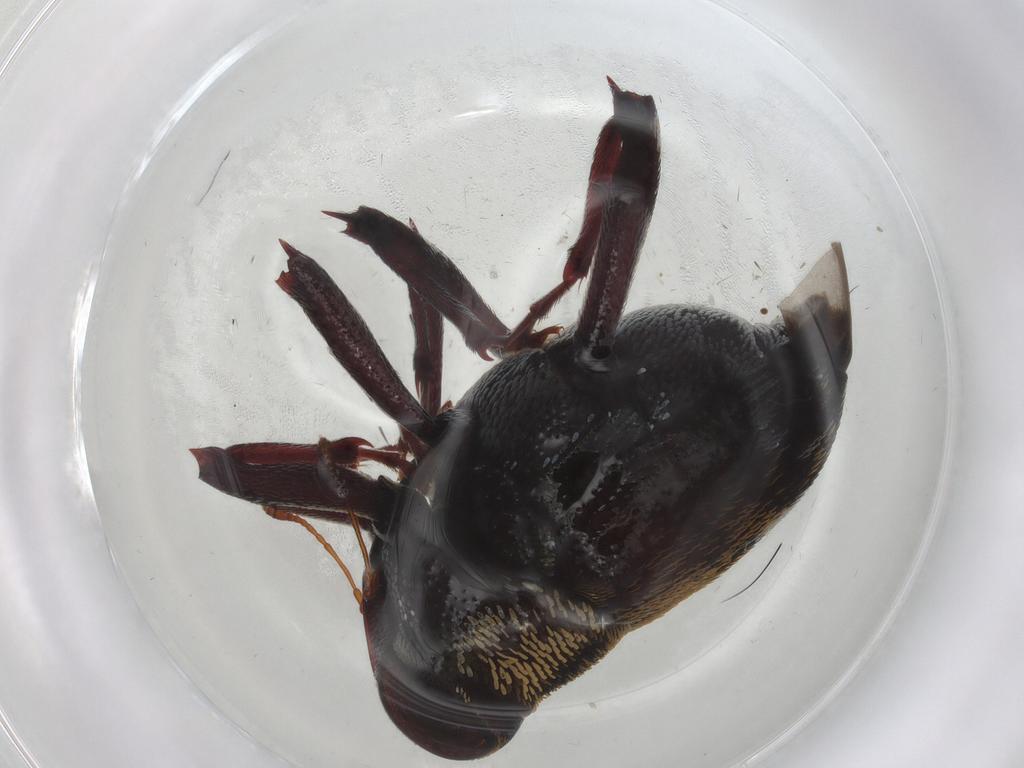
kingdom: Animalia
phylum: Arthropoda
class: Insecta
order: Coleoptera
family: Curculionidae
